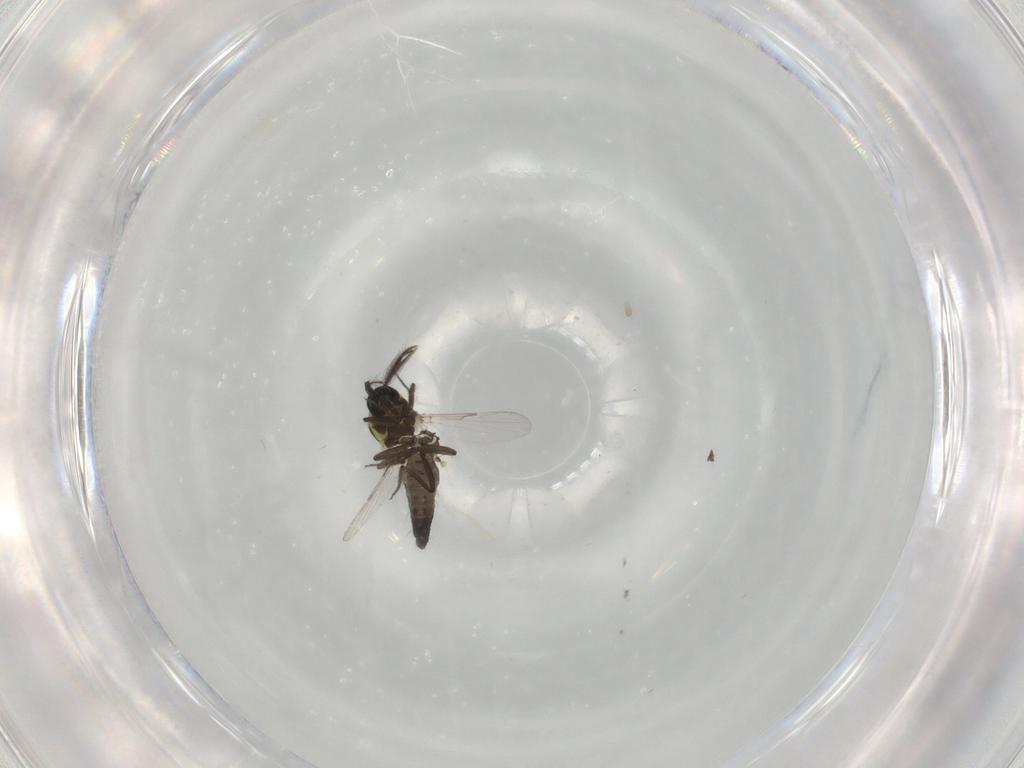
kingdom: Animalia
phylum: Arthropoda
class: Insecta
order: Diptera
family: Ceratopogonidae
